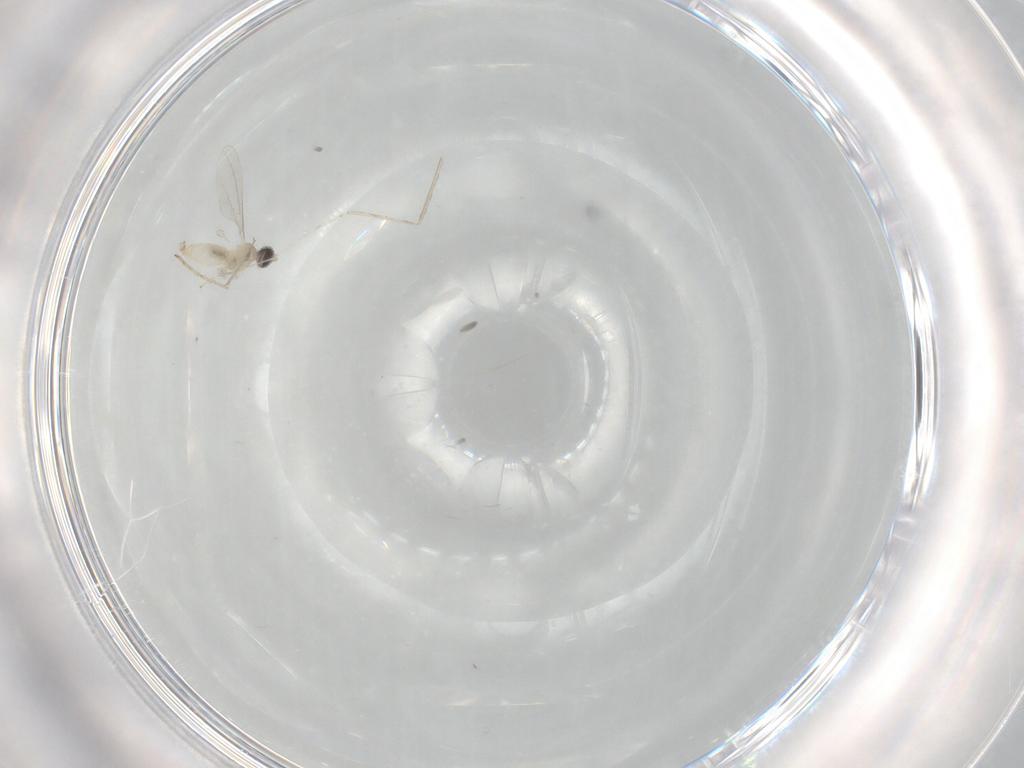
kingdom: Animalia
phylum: Arthropoda
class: Insecta
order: Diptera
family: Cecidomyiidae
